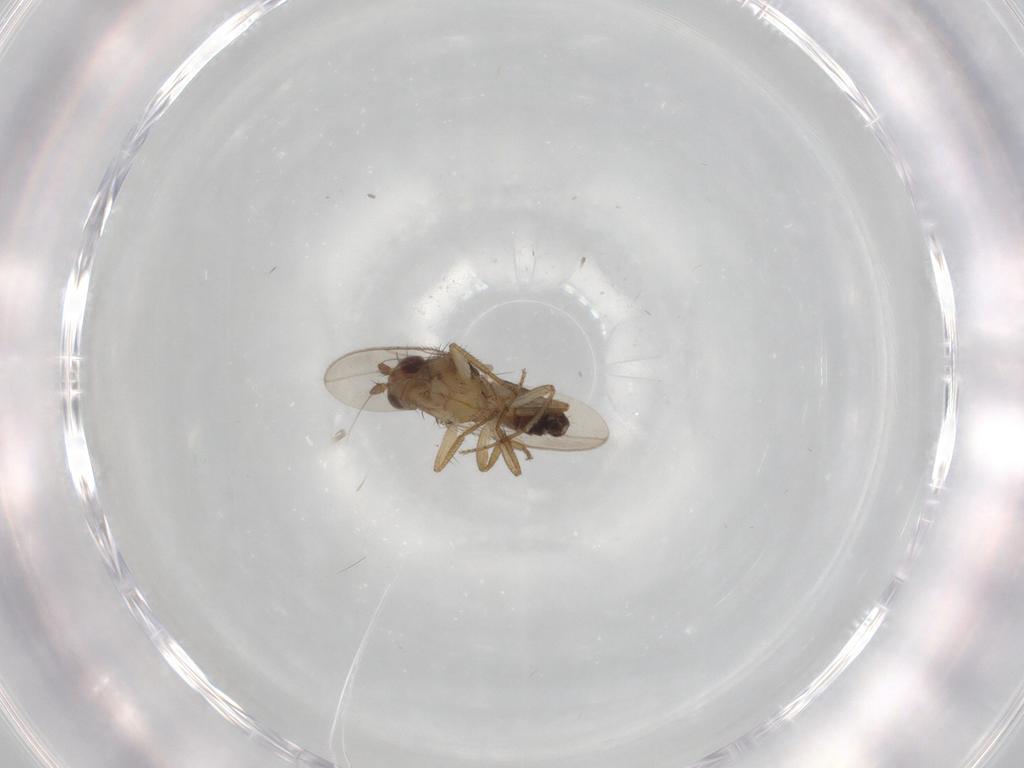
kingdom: Animalia
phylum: Arthropoda
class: Insecta
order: Diptera
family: Sphaeroceridae
